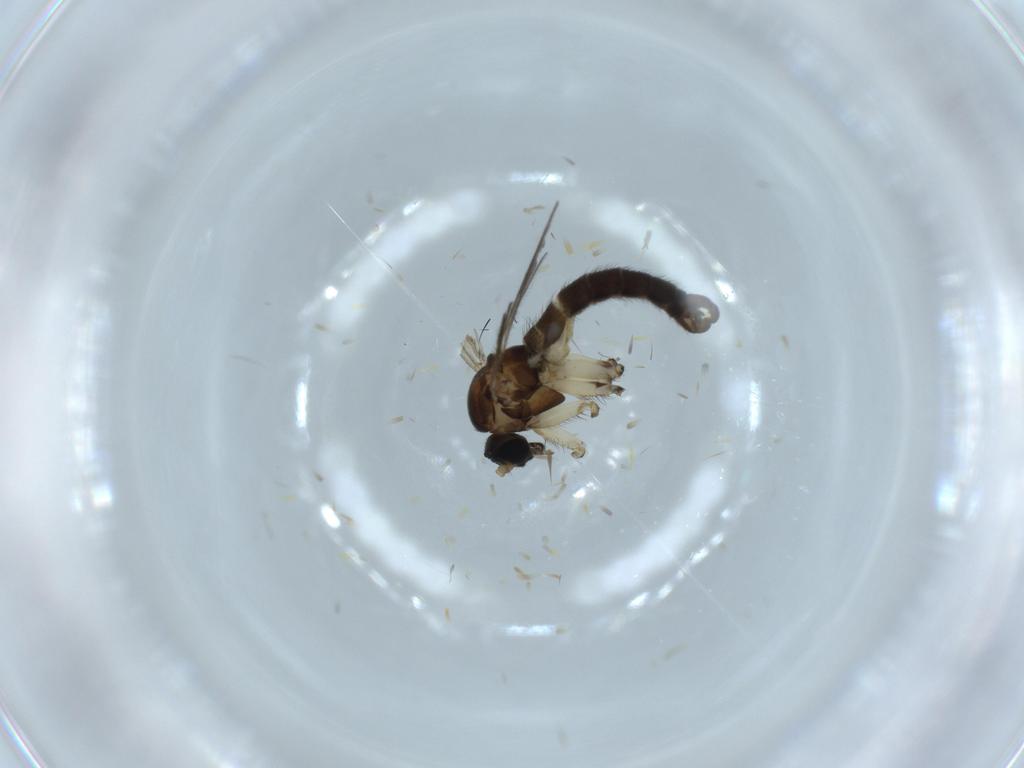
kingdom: Animalia
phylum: Arthropoda
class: Insecta
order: Diptera
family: Sciaridae
